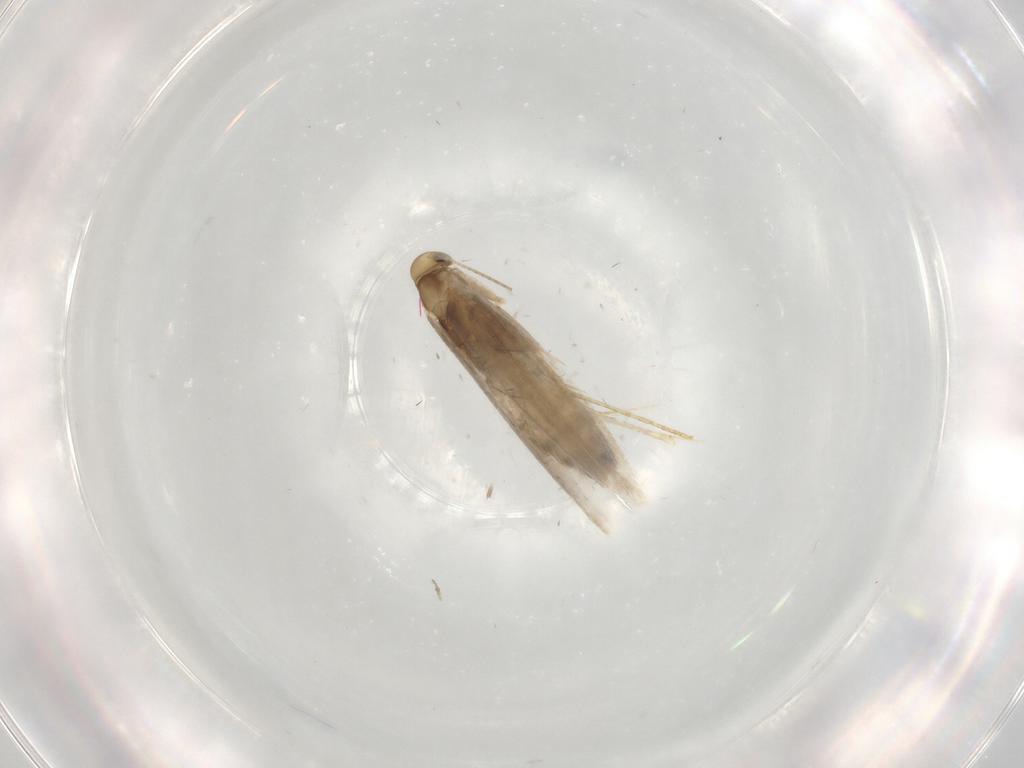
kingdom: Animalia
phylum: Arthropoda
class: Insecta
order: Lepidoptera
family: Gracillariidae
